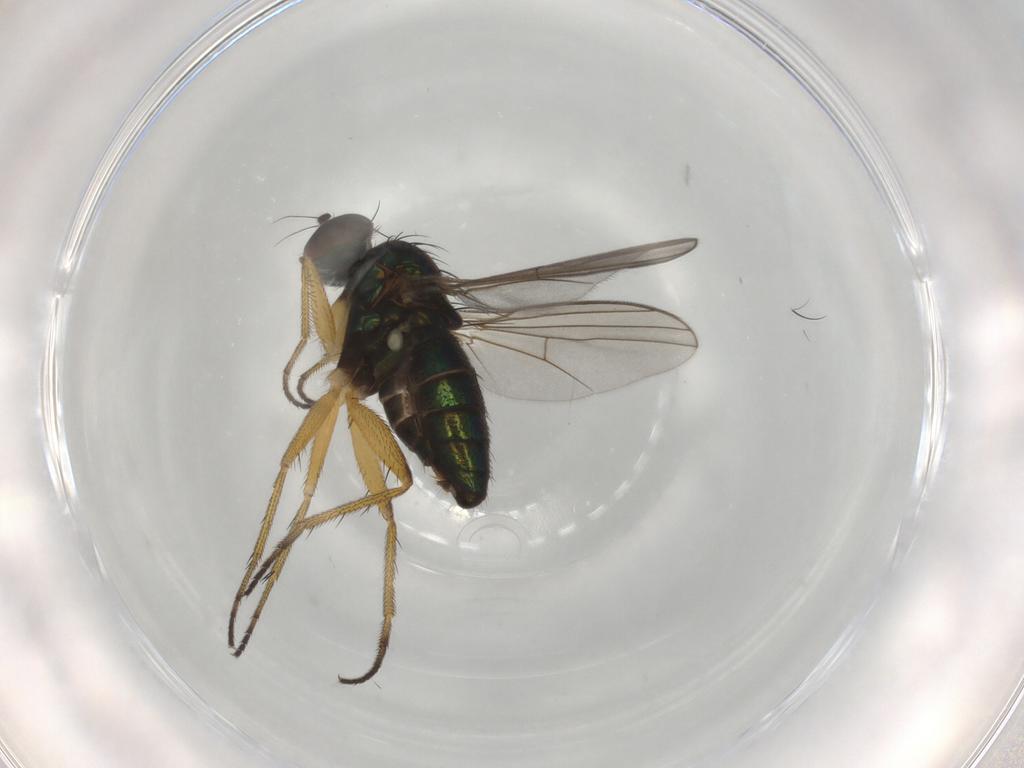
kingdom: Animalia
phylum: Arthropoda
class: Insecta
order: Diptera
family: Dolichopodidae
